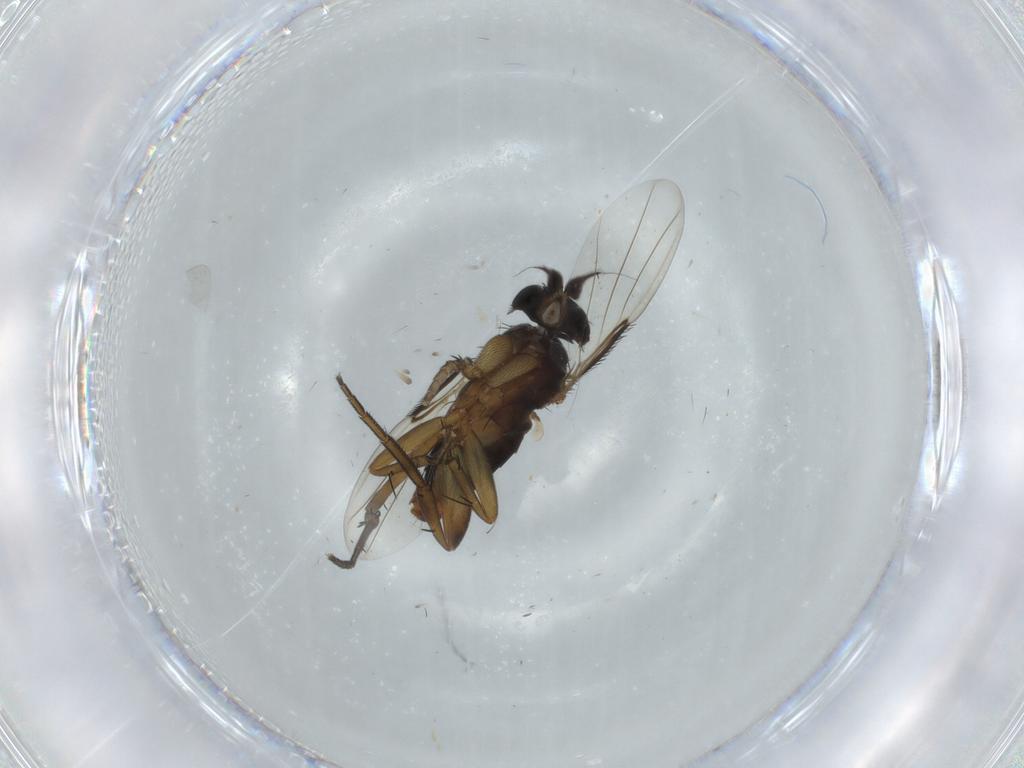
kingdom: Animalia
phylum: Arthropoda
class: Insecta
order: Diptera
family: Phoridae
